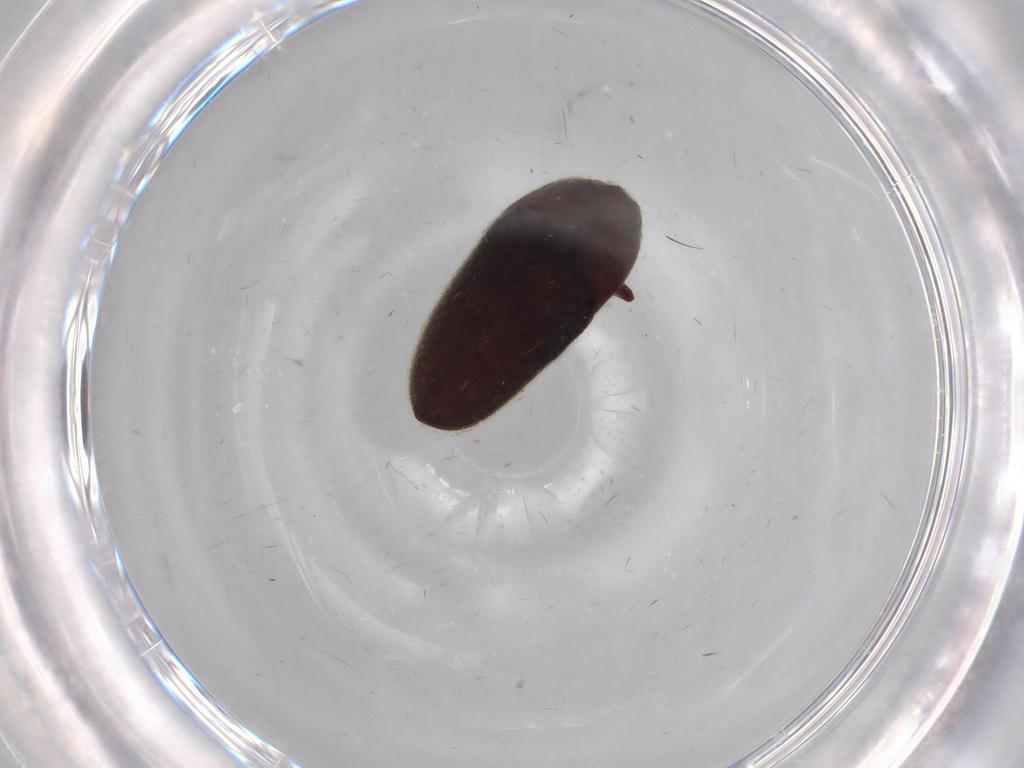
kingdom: Animalia
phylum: Arthropoda
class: Insecta
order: Coleoptera
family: Throscidae
